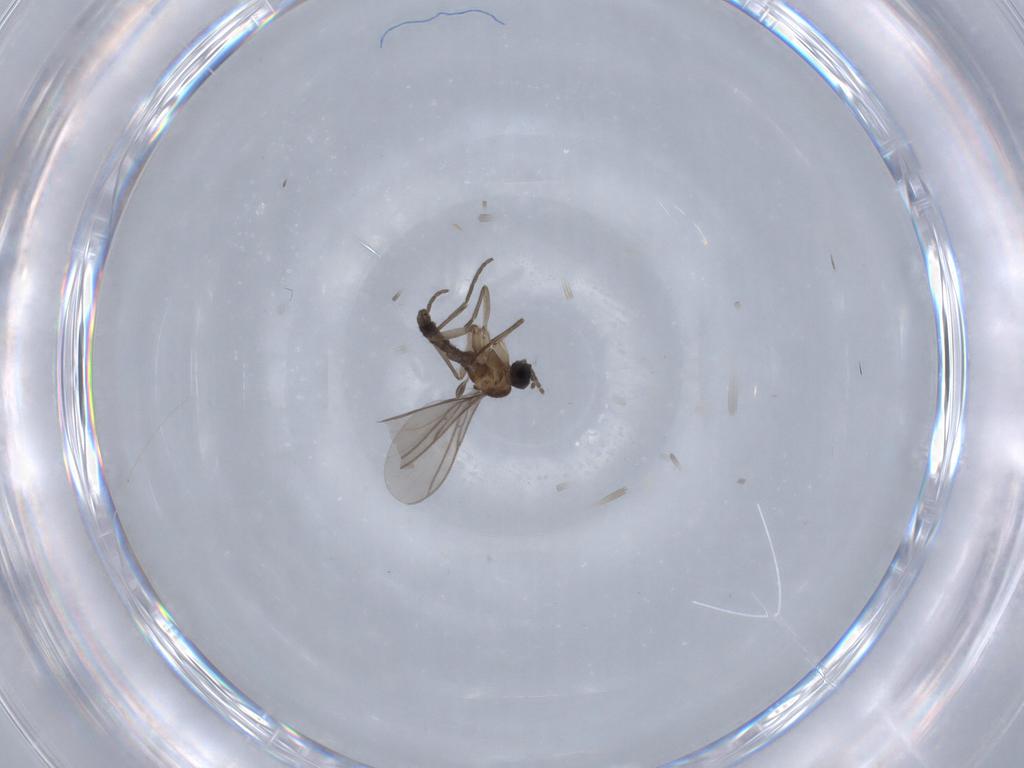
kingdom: Animalia
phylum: Arthropoda
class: Insecta
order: Diptera
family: Sciaridae
